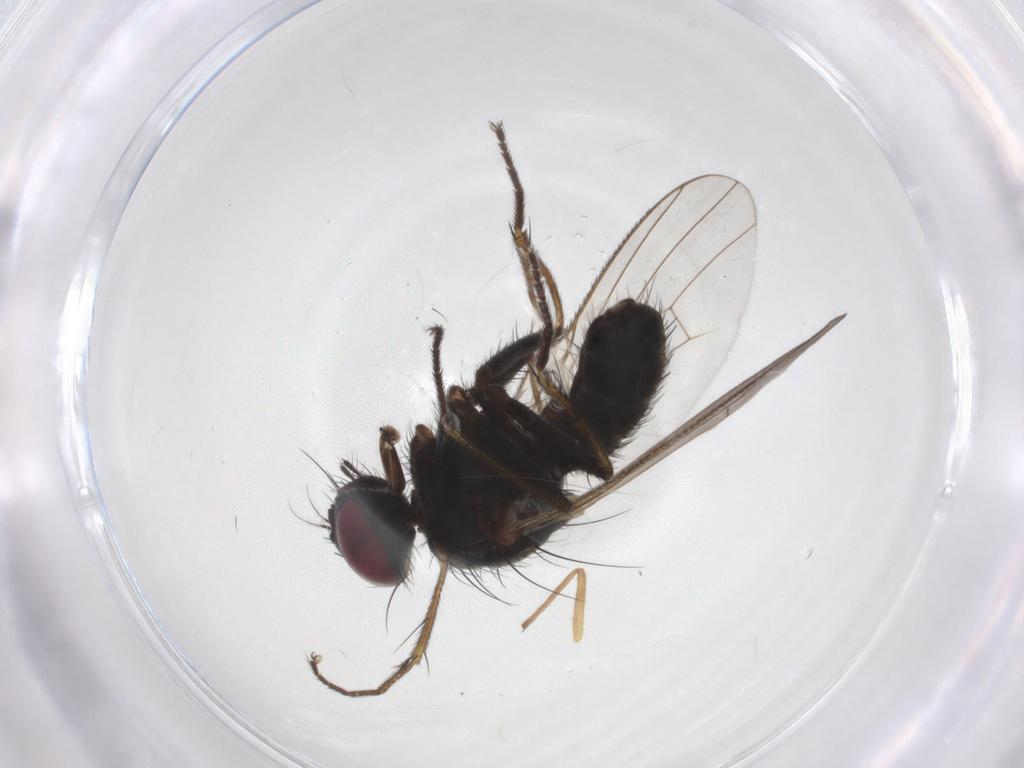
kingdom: Animalia
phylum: Arthropoda
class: Insecta
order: Diptera
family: Muscidae
